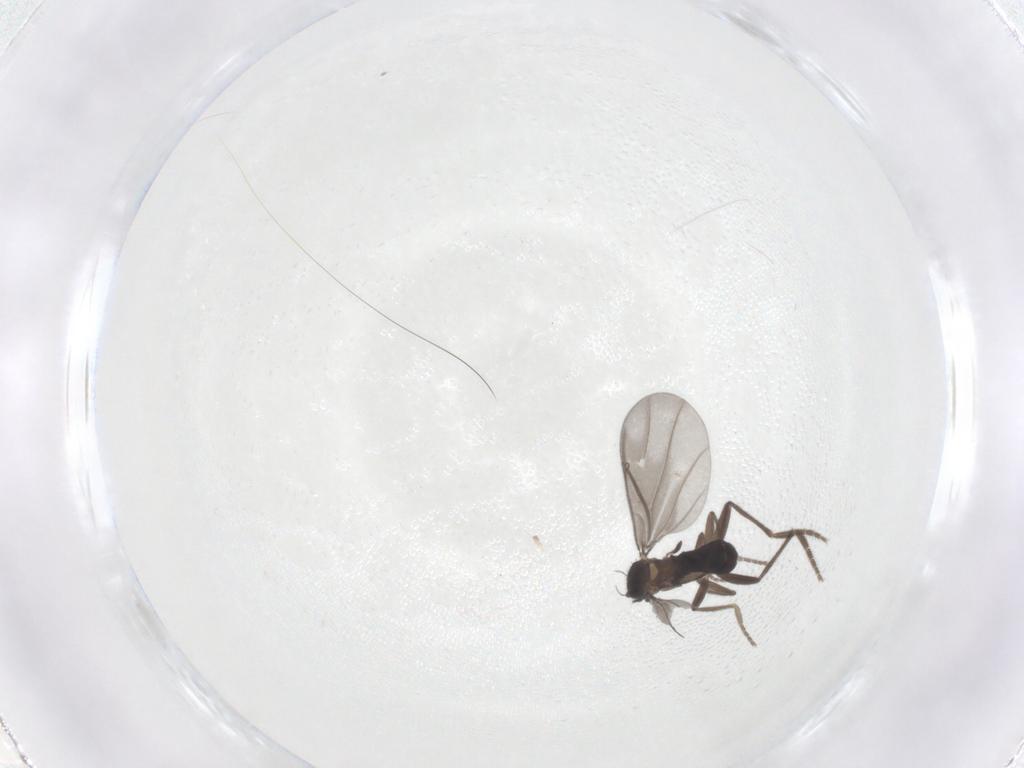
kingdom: Animalia
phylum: Arthropoda
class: Insecta
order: Diptera
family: Phoridae
